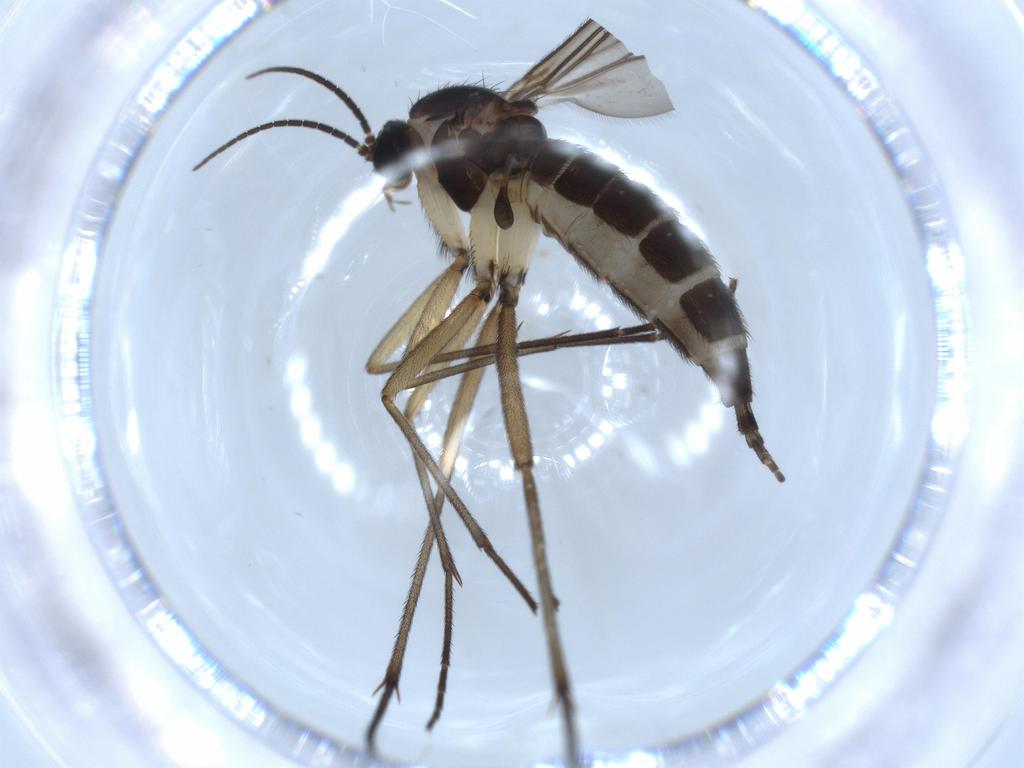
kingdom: Animalia
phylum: Arthropoda
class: Insecta
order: Diptera
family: Sciaridae
